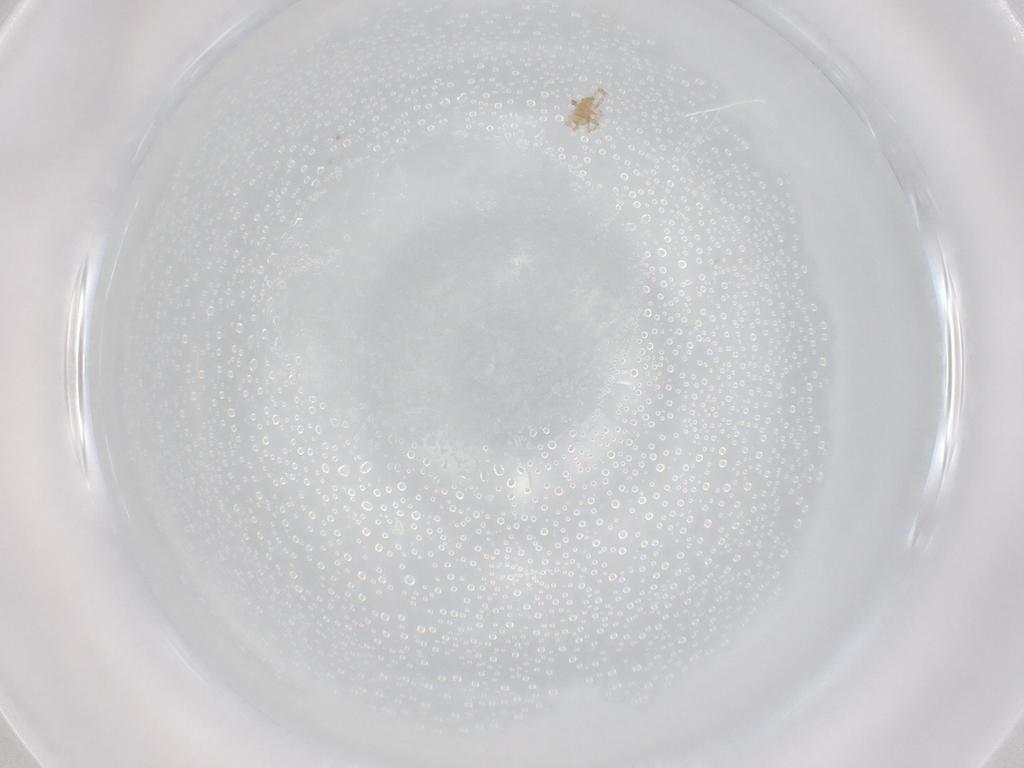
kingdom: Animalia
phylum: Arthropoda
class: Arachnida
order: Trombidiformes
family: Erythraeidae
